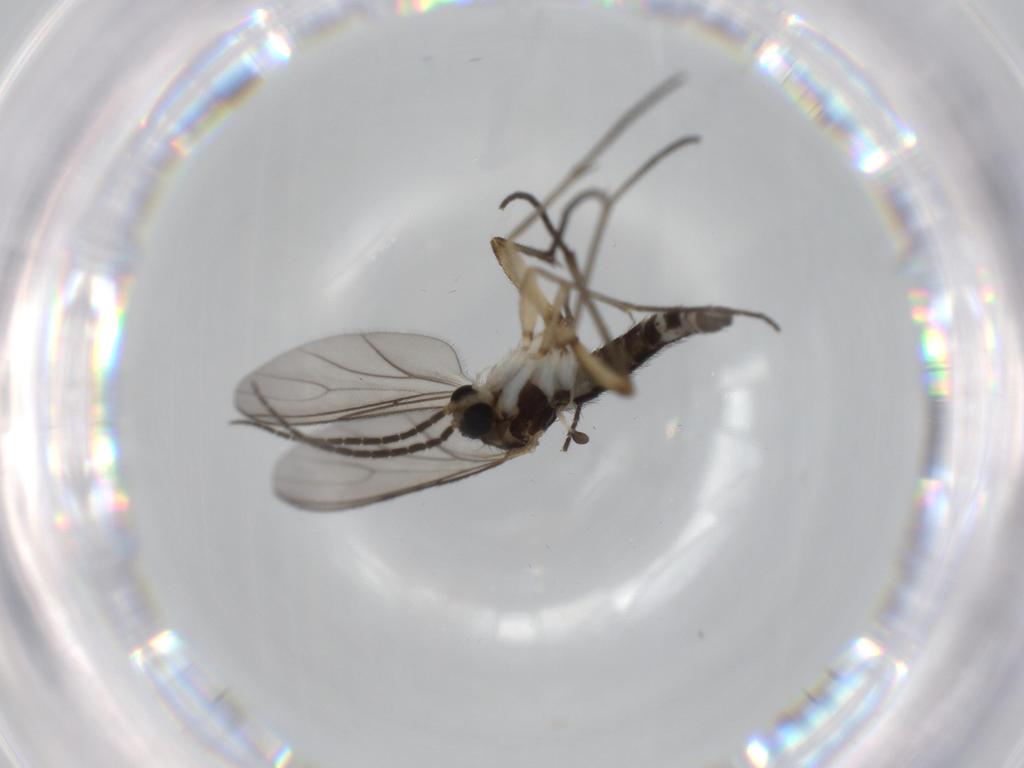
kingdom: Animalia
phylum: Arthropoda
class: Insecta
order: Diptera
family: Sciaridae
